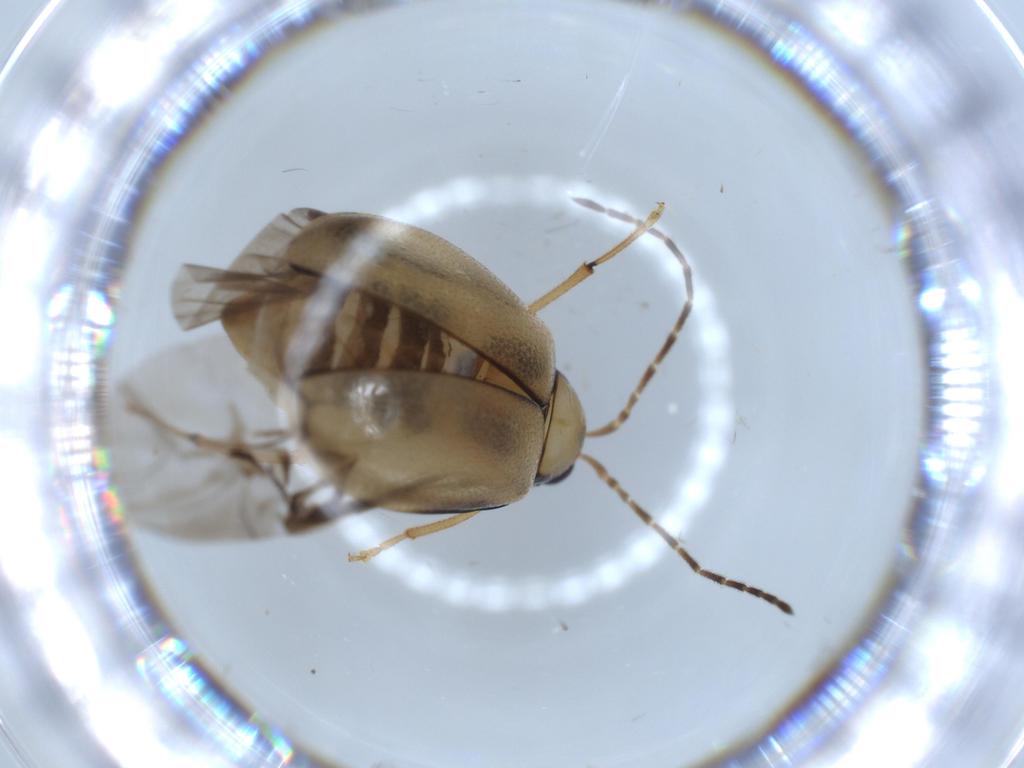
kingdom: Animalia
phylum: Arthropoda
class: Insecta
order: Coleoptera
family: Chrysomelidae
